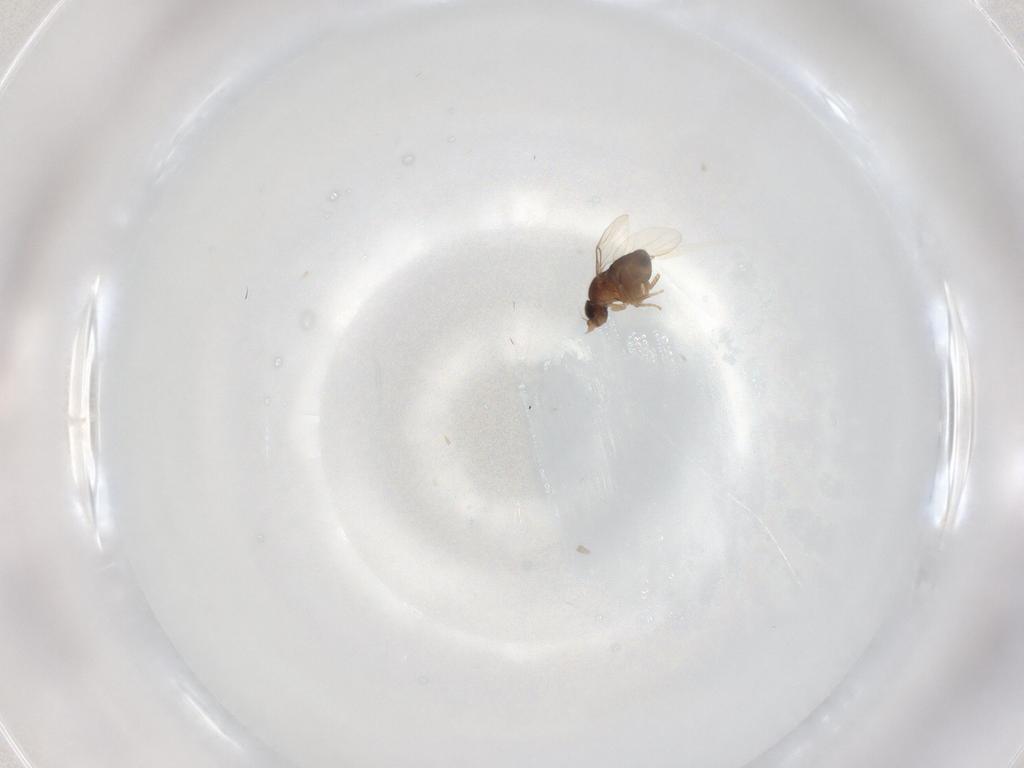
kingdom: Animalia
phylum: Arthropoda
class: Insecta
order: Diptera
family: Phoridae
